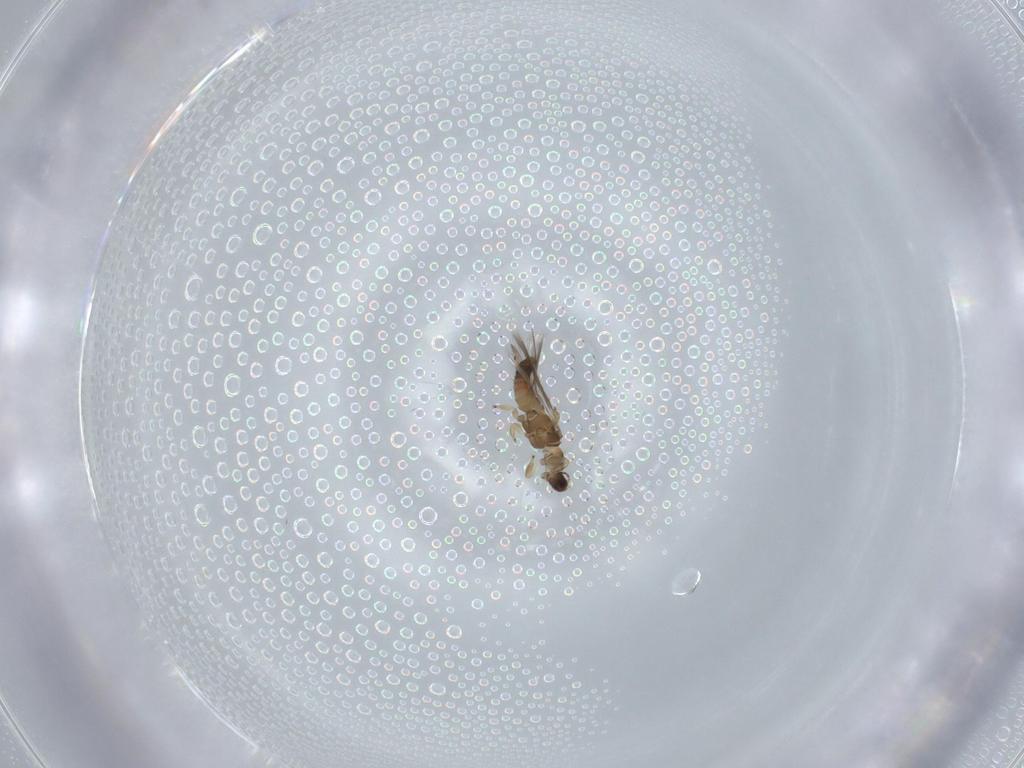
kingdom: Animalia
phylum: Arthropoda
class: Insecta
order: Thysanoptera
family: Thripidae
